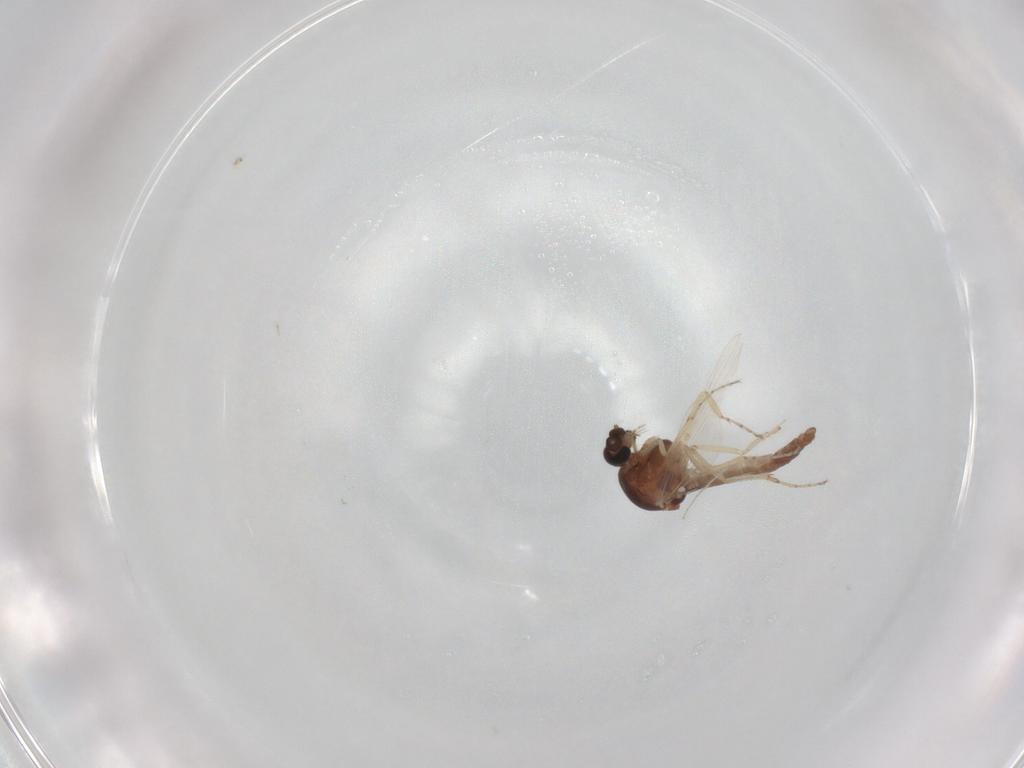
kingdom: Animalia
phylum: Arthropoda
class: Insecta
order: Diptera
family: Ceratopogonidae
